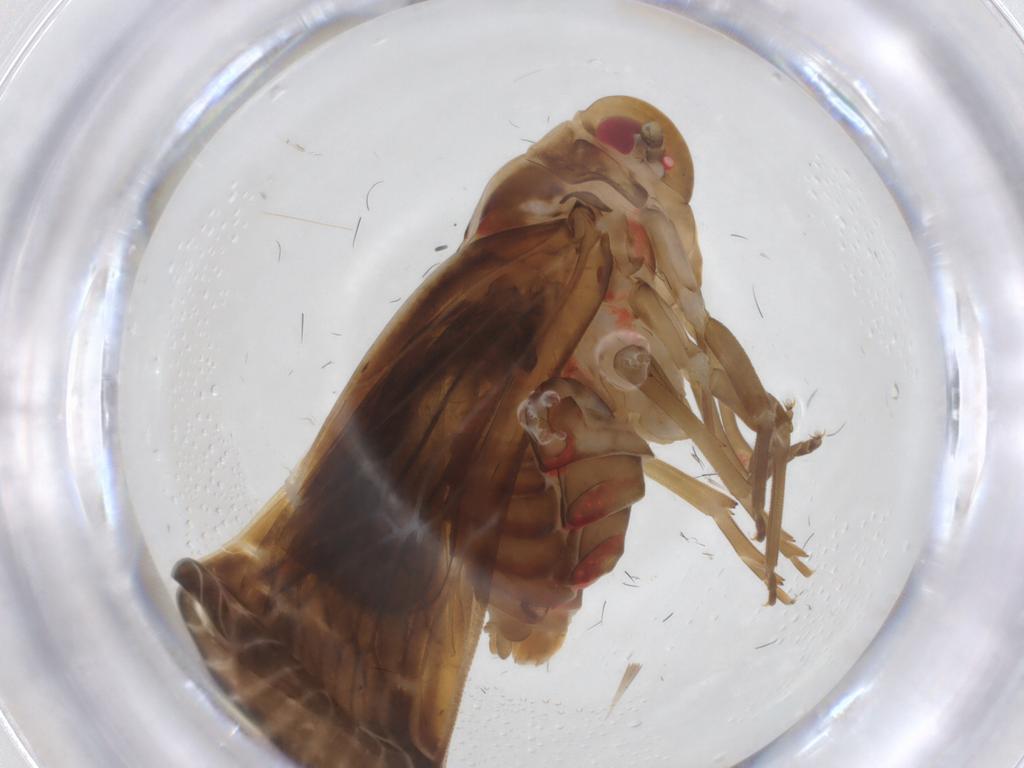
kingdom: Animalia
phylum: Arthropoda
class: Insecta
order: Hemiptera
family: Achilixiidae
